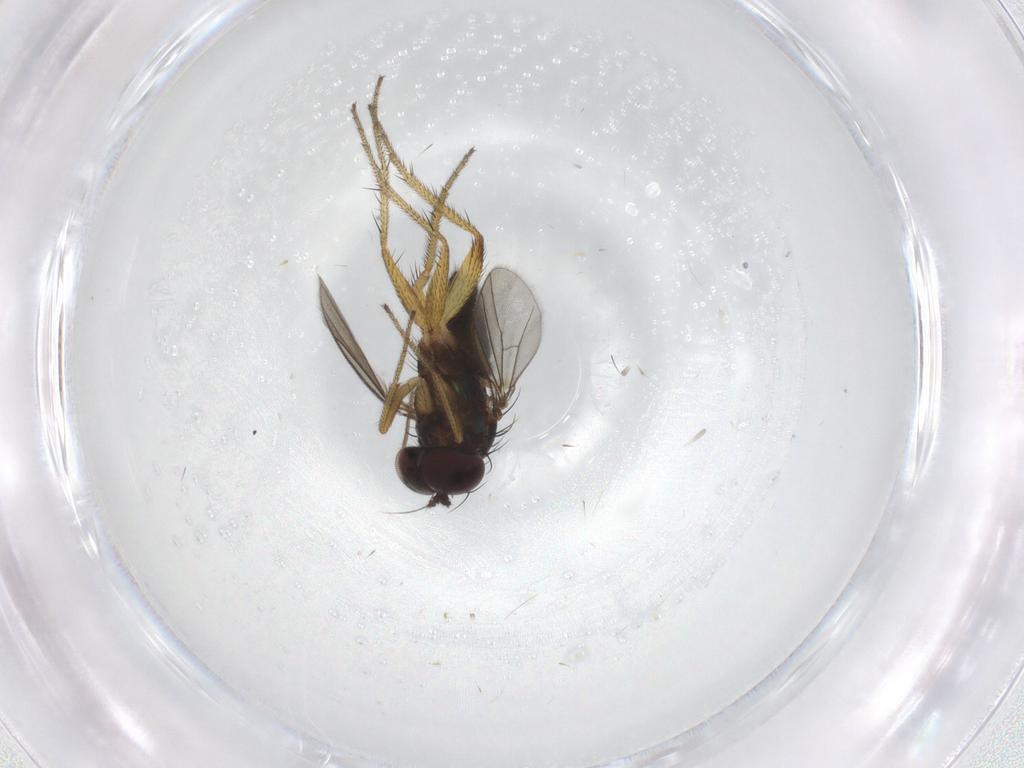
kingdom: Animalia
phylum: Arthropoda
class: Insecta
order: Diptera
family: Dolichopodidae
